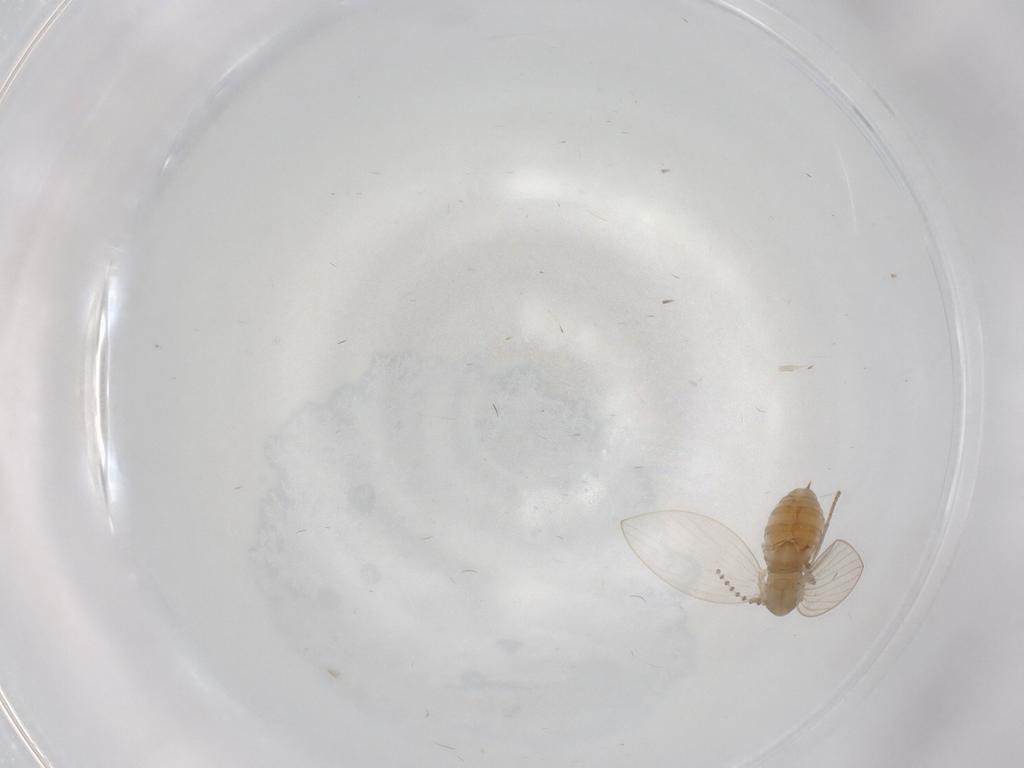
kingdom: Animalia
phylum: Arthropoda
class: Insecta
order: Diptera
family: Psychodidae
